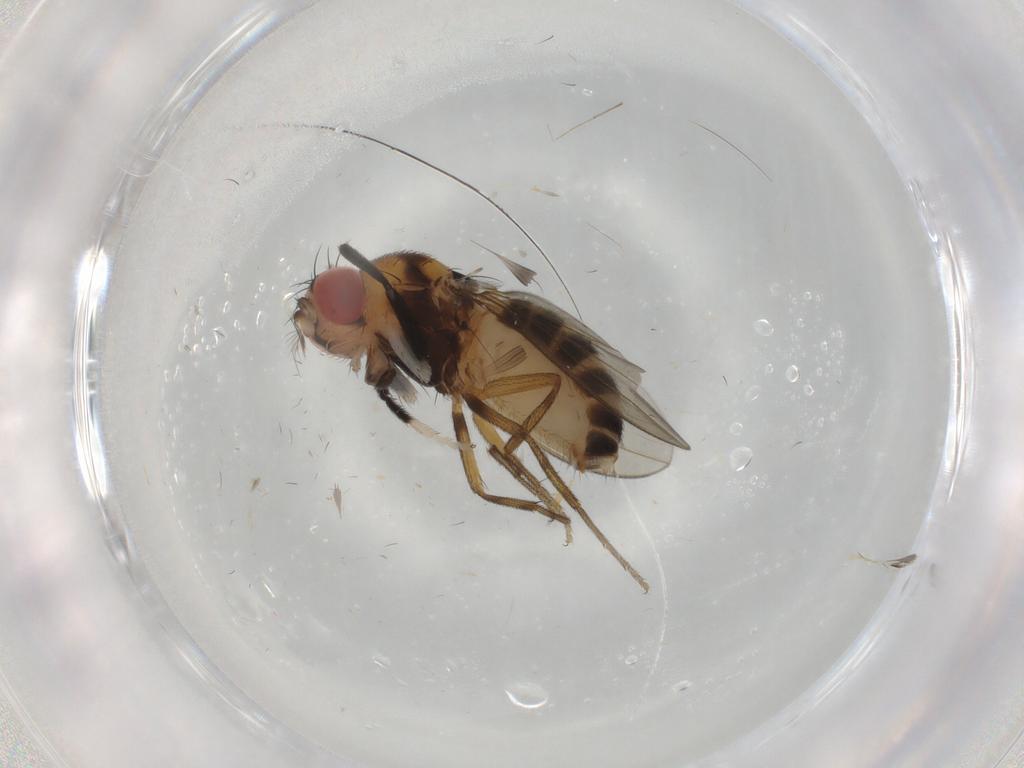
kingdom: Animalia
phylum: Arthropoda
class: Insecta
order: Diptera
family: Drosophilidae
